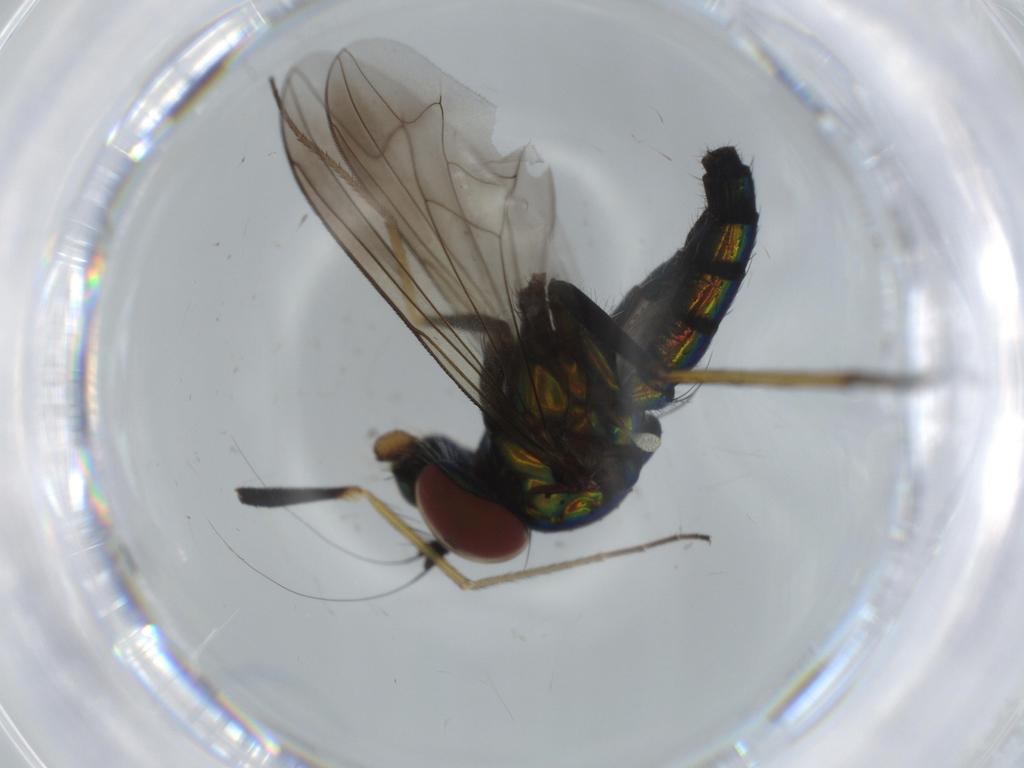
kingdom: Animalia
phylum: Arthropoda
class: Insecta
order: Diptera
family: Dolichopodidae
